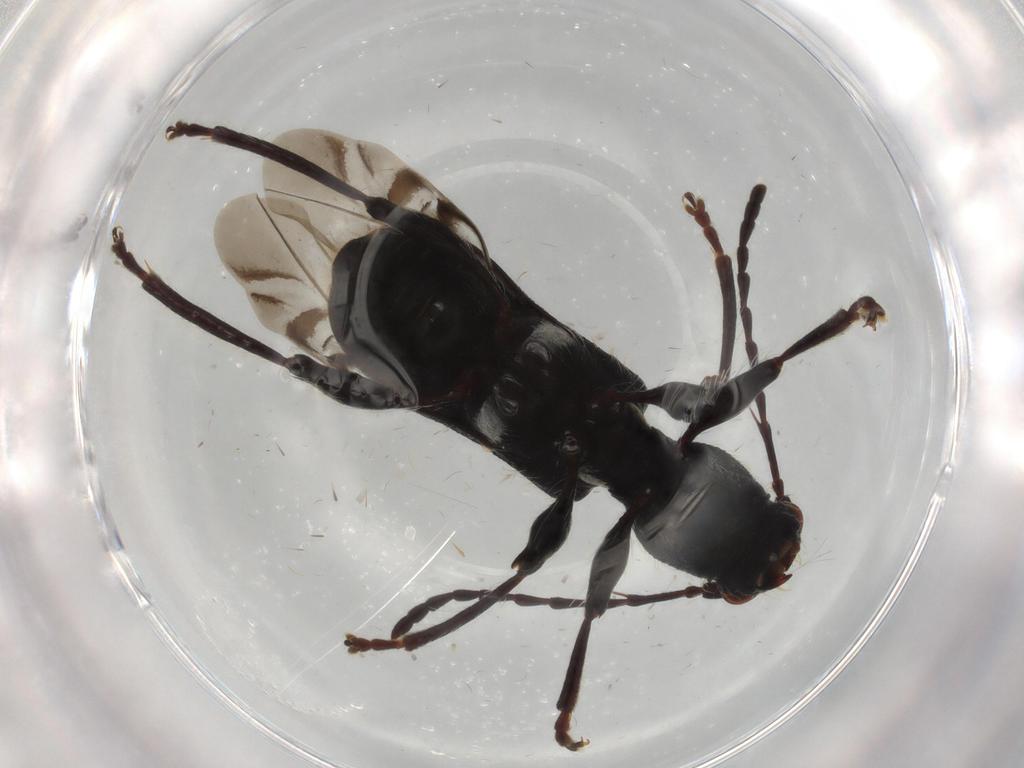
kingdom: Animalia
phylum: Arthropoda
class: Insecta
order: Coleoptera
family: Cerambycidae
